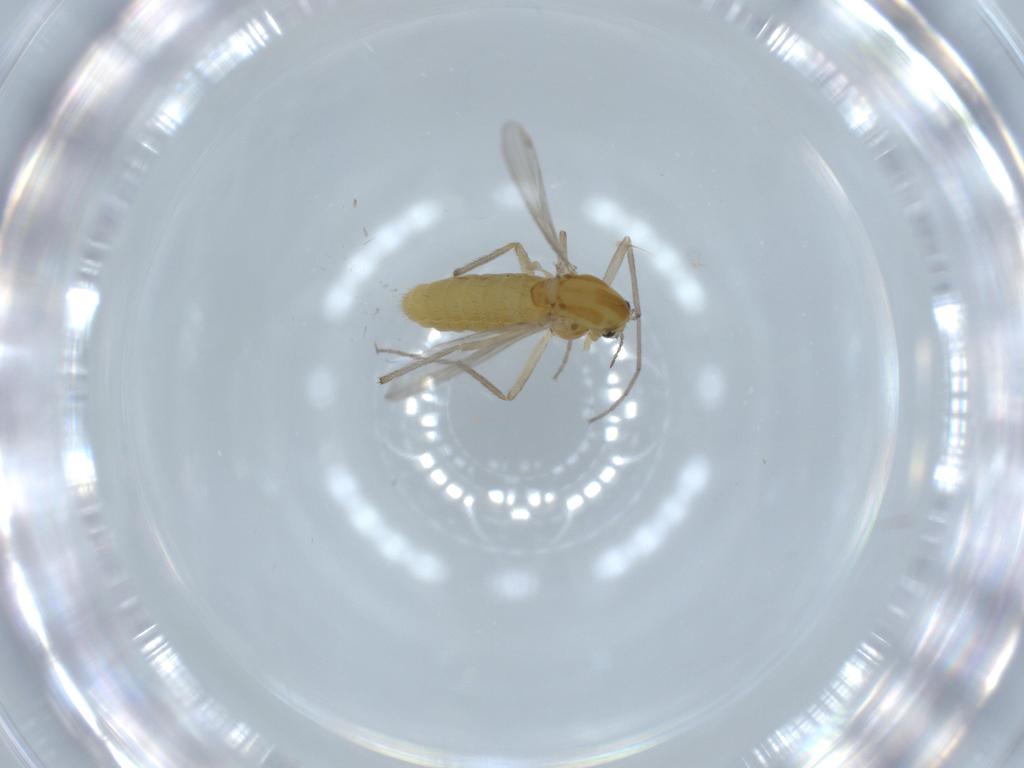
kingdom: Animalia
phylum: Arthropoda
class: Insecta
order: Diptera
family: Chironomidae
